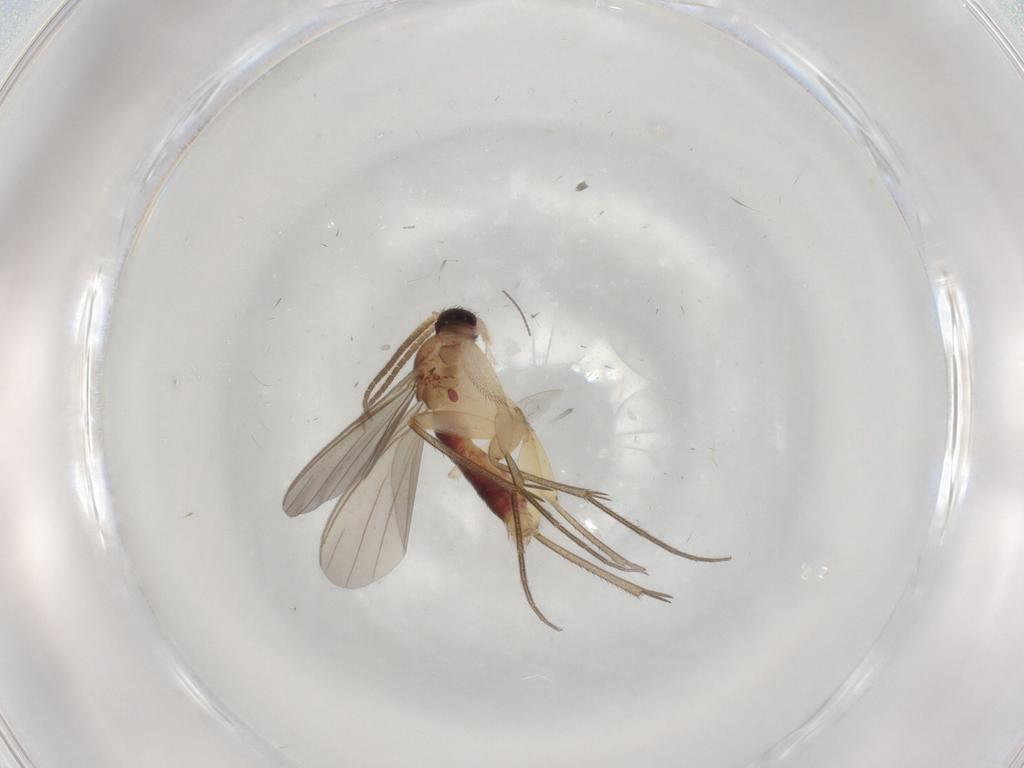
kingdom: Animalia
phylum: Arthropoda
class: Insecta
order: Diptera
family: Mycetophilidae
